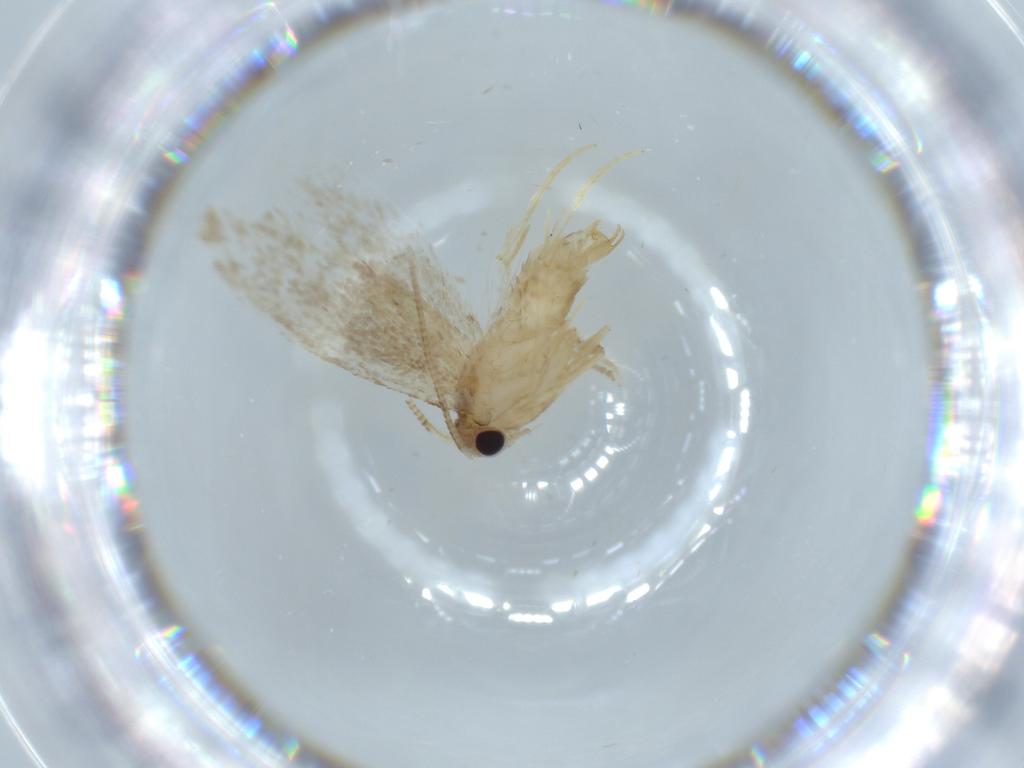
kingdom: Animalia
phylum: Arthropoda
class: Insecta
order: Lepidoptera
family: Tineidae
